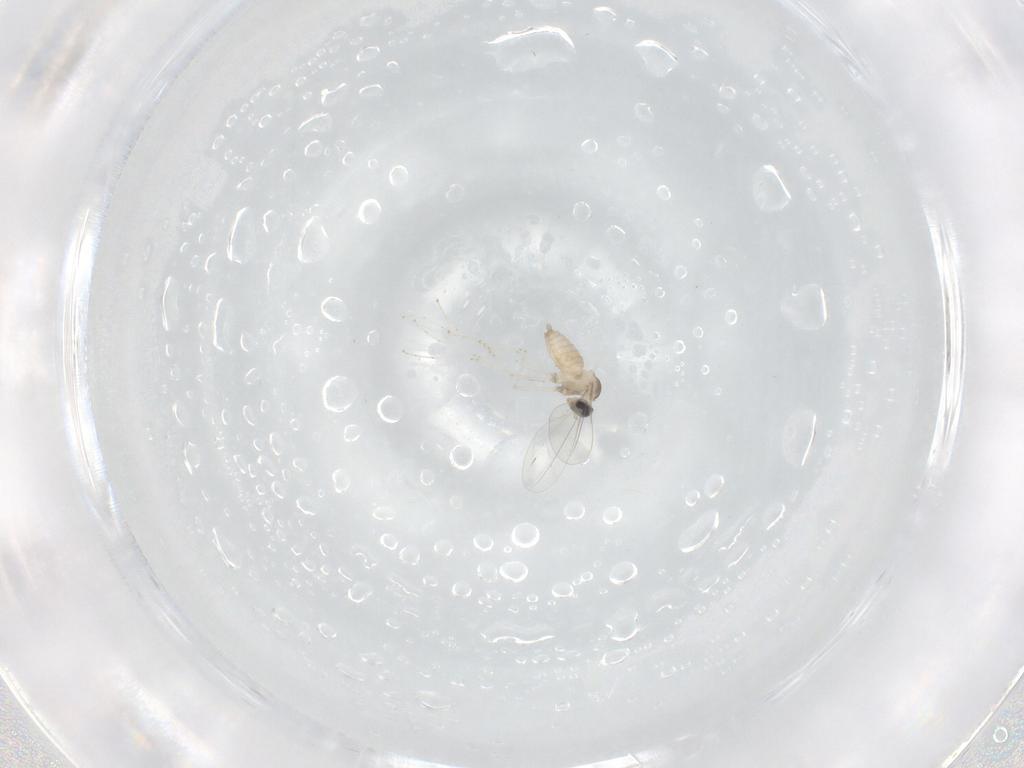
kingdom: Animalia
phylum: Arthropoda
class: Insecta
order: Diptera
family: Cecidomyiidae
